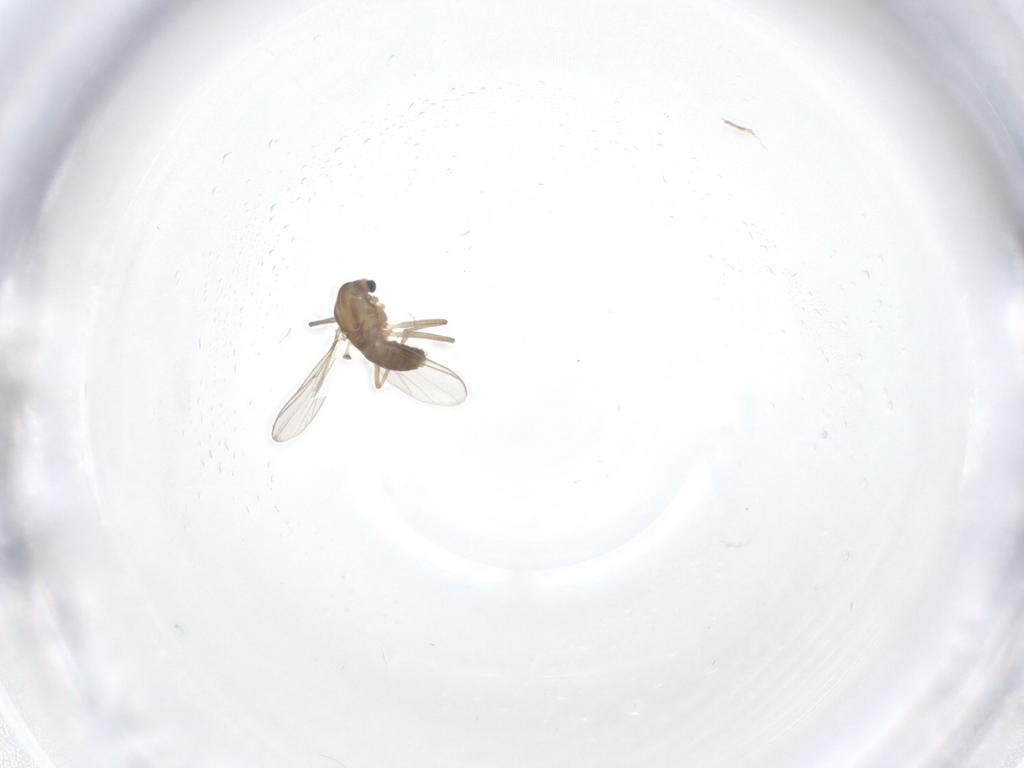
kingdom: Animalia
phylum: Arthropoda
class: Insecta
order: Diptera
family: Chironomidae
